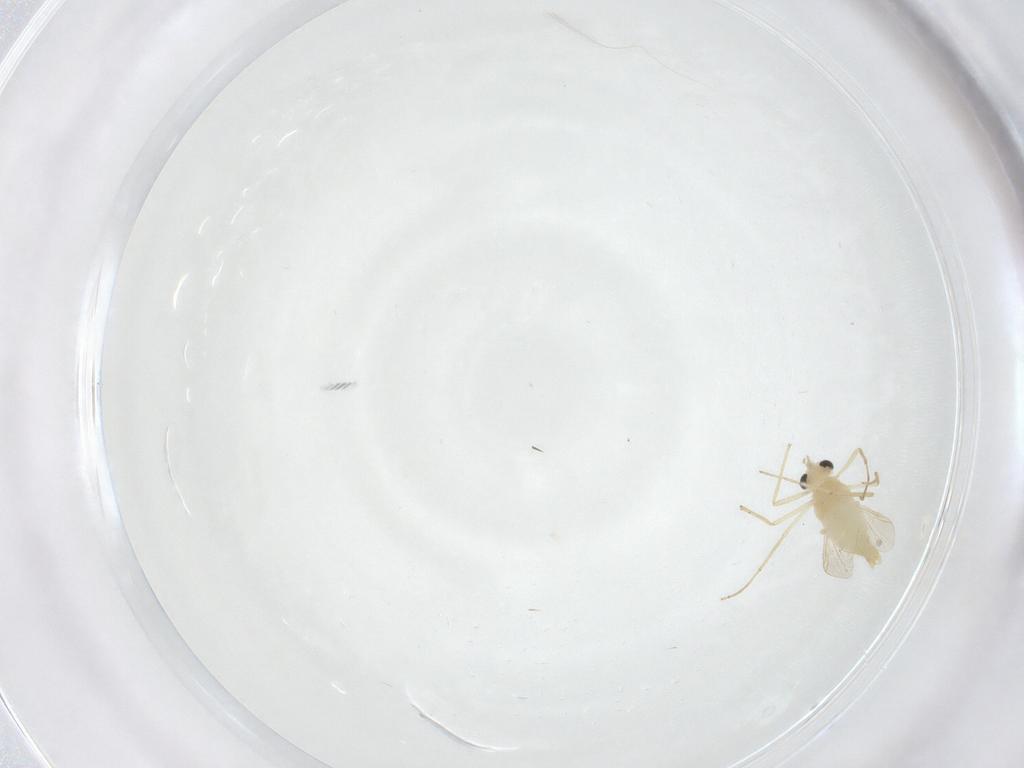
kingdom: Animalia
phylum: Arthropoda
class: Insecta
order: Diptera
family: Chironomidae
